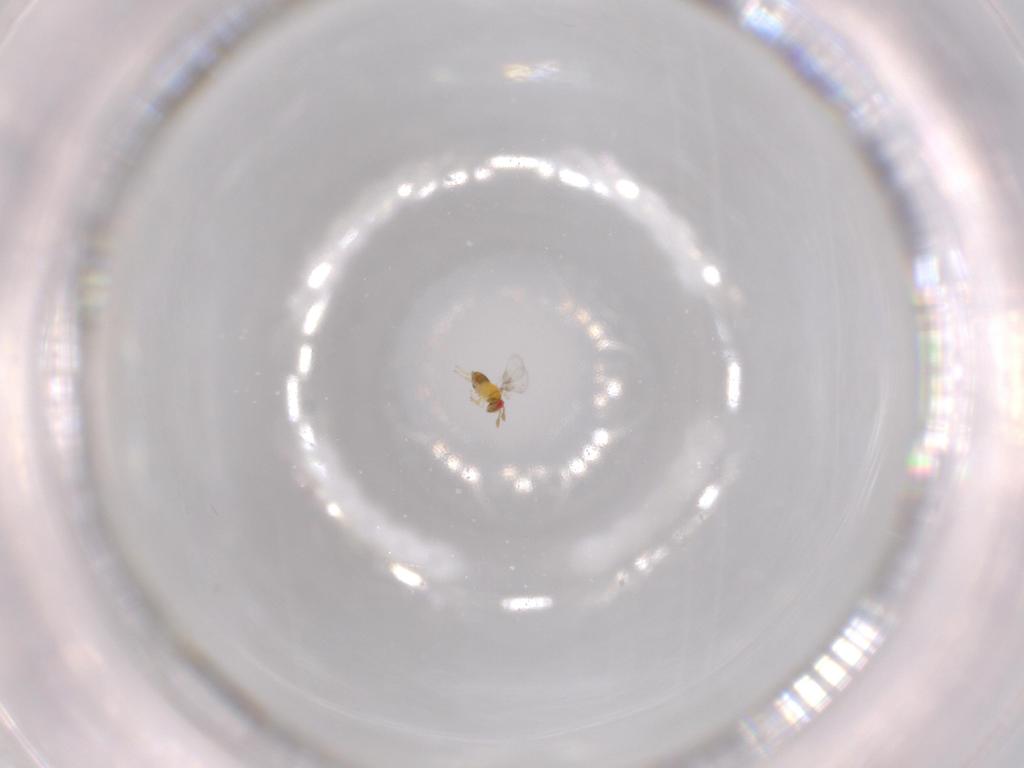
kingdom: Animalia
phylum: Arthropoda
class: Insecta
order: Hymenoptera
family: Trichogrammatidae
